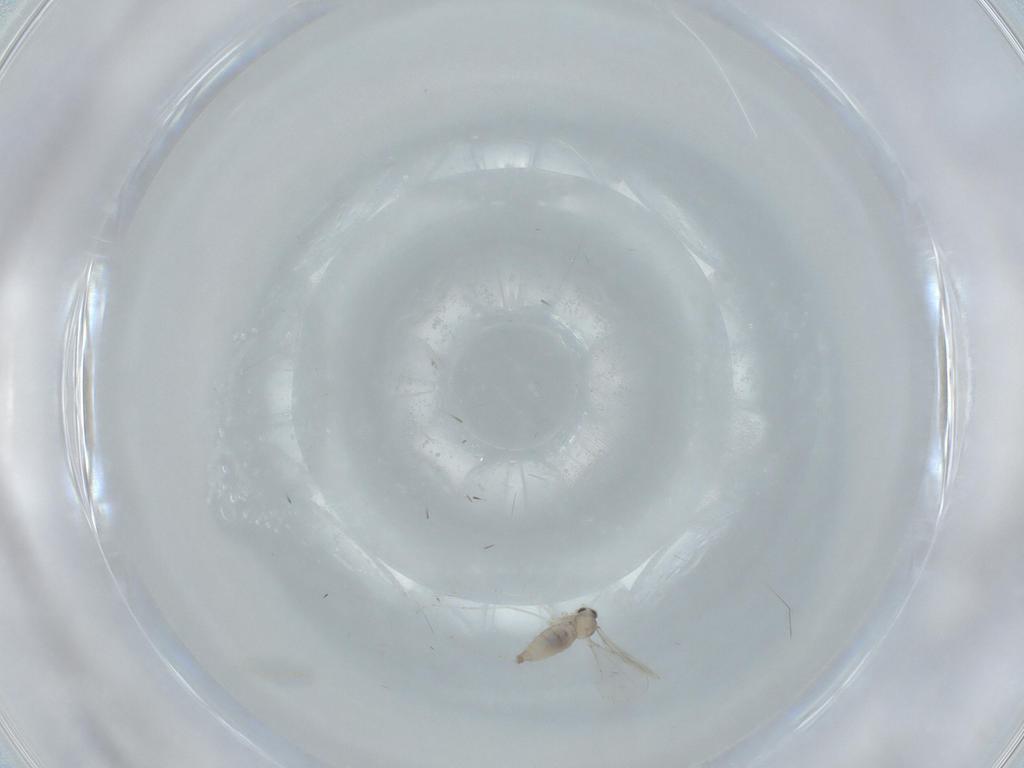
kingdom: Animalia
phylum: Arthropoda
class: Insecta
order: Diptera
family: Cecidomyiidae
